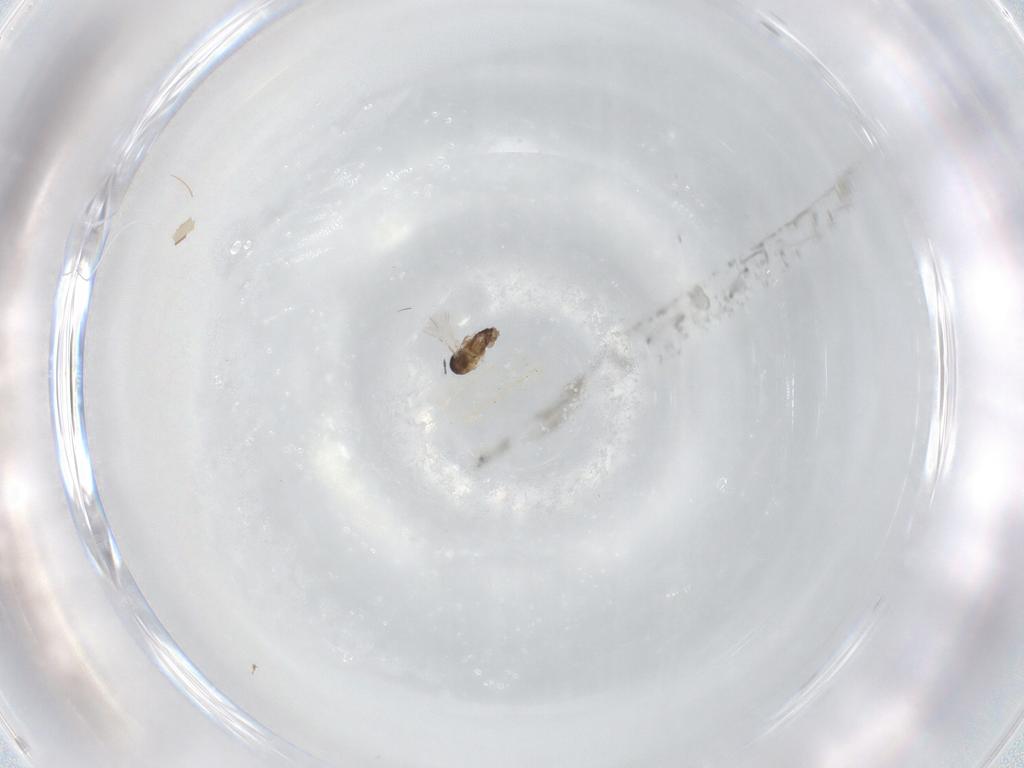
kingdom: Animalia
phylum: Arthropoda
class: Insecta
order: Diptera
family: Psychodidae
